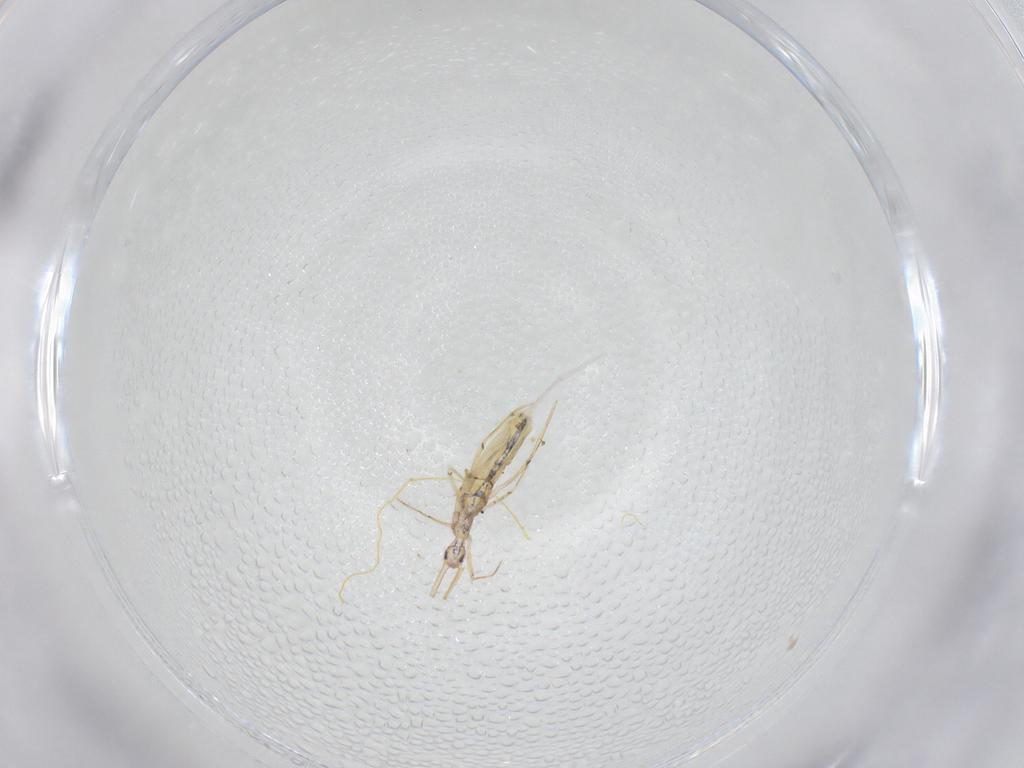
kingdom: Animalia
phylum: Arthropoda
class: Collembola
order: Entomobryomorpha
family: Entomobryidae
